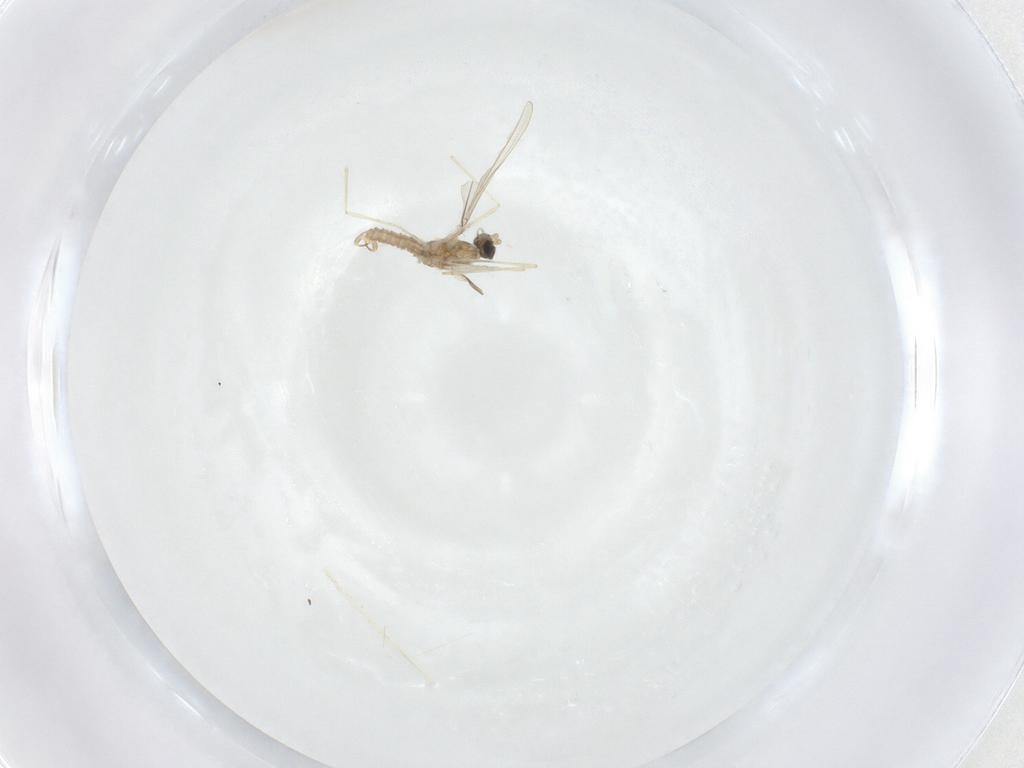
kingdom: Animalia
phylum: Arthropoda
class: Insecta
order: Diptera
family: Cecidomyiidae
